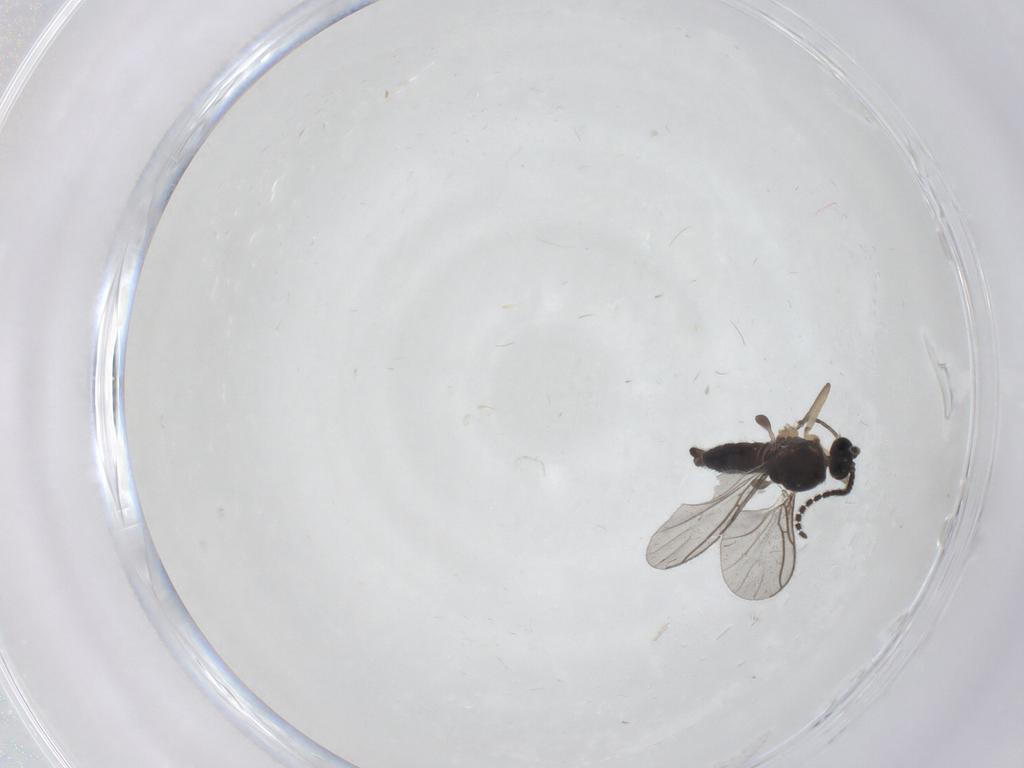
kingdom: Animalia
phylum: Arthropoda
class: Insecta
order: Diptera
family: Sciaridae
